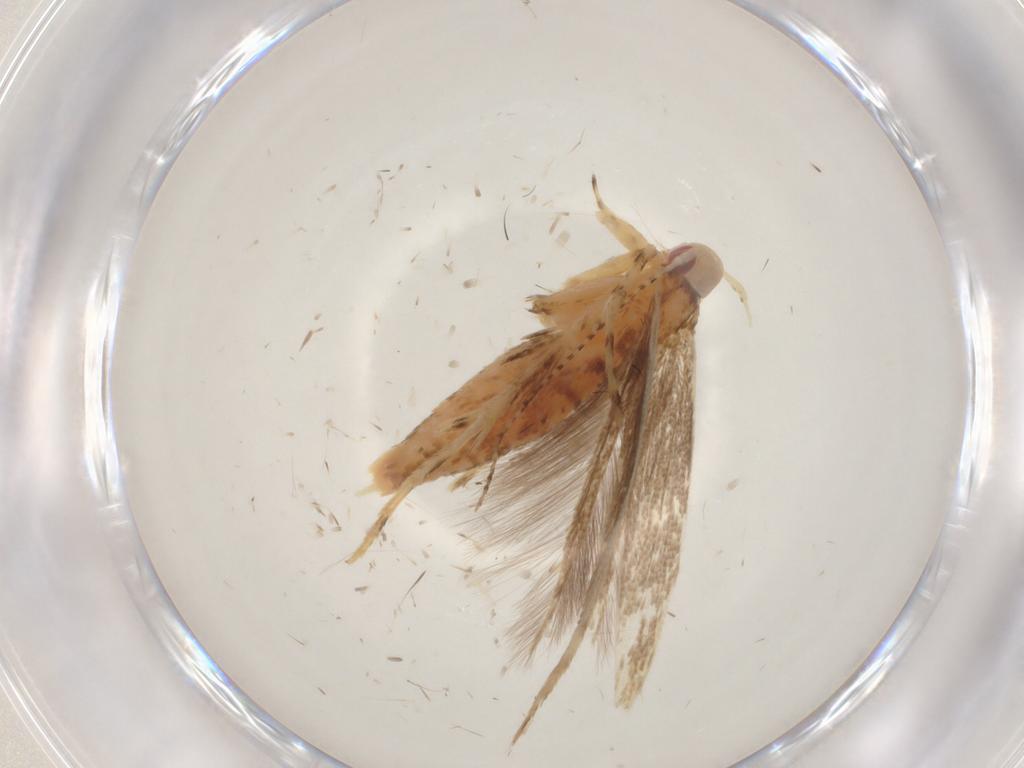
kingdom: Animalia
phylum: Arthropoda
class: Insecta
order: Lepidoptera
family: Cosmopterigidae
